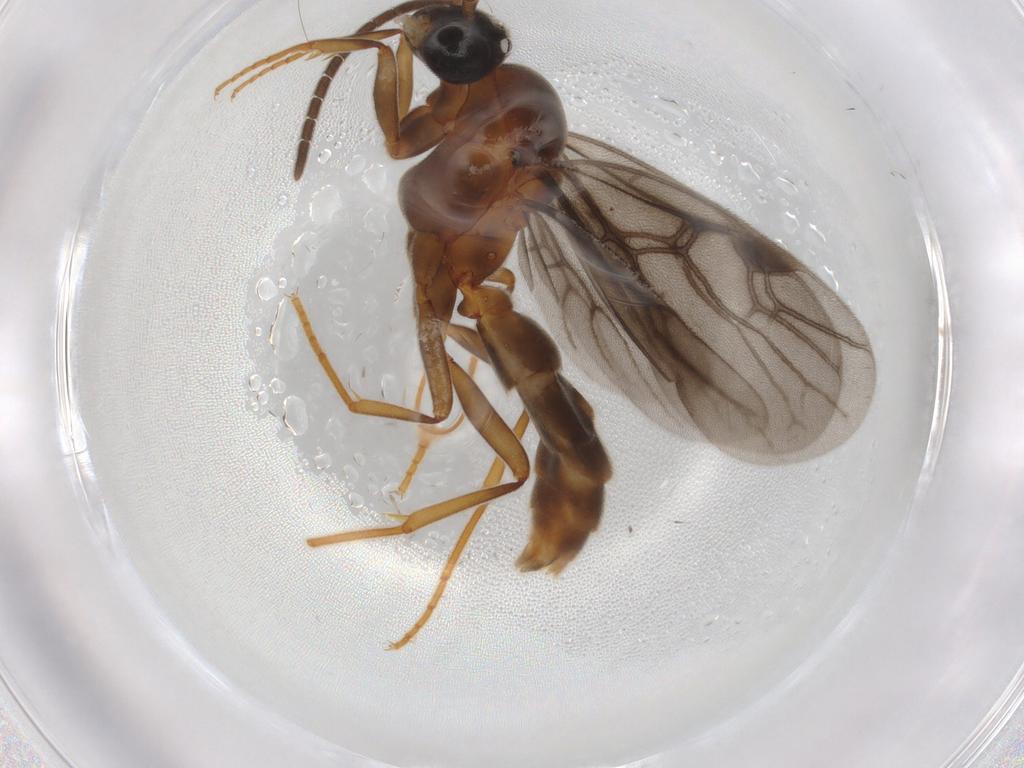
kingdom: Animalia
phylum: Arthropoda
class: Insecta
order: Hymenoptera
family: Formicidae
